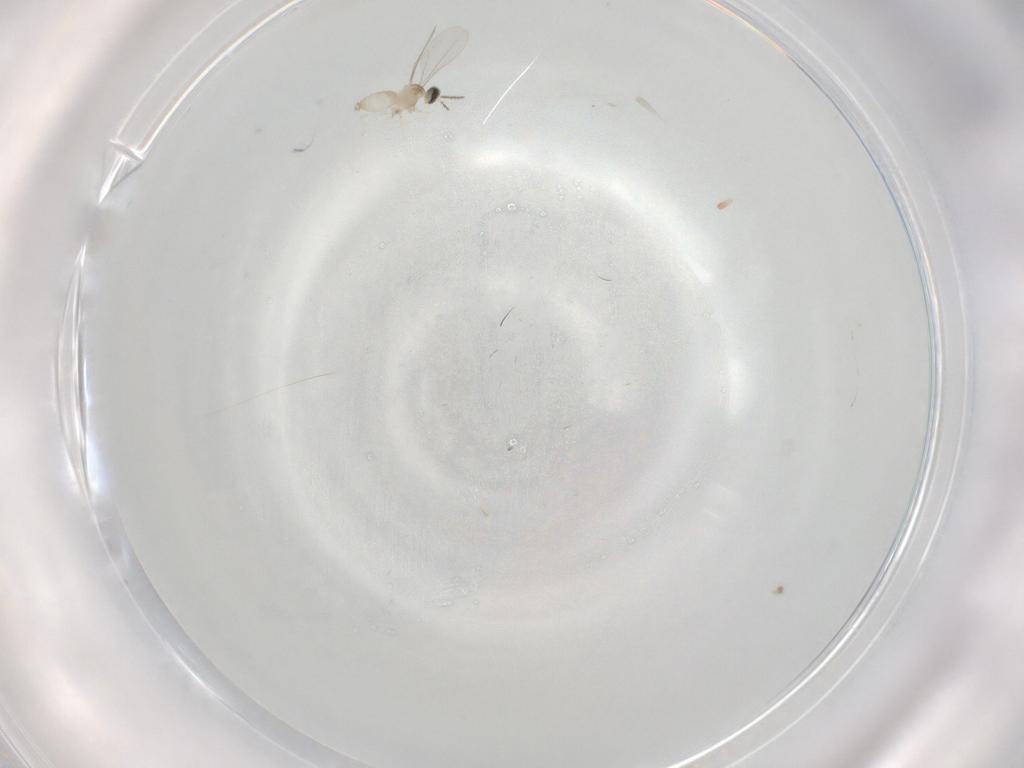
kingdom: Animalia
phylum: Arthropoda
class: Insecta
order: Diptera
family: Cecidomyiidae
